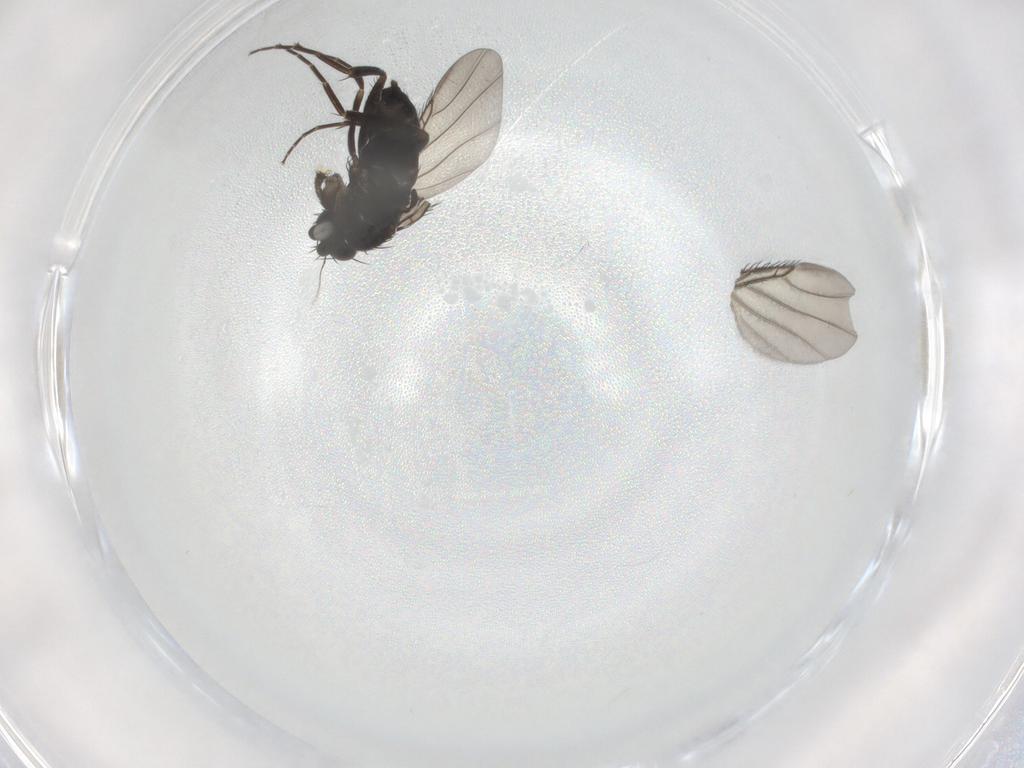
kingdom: Animalia
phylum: Arthropoda
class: Insecta
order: Diptera
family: Phoridae
